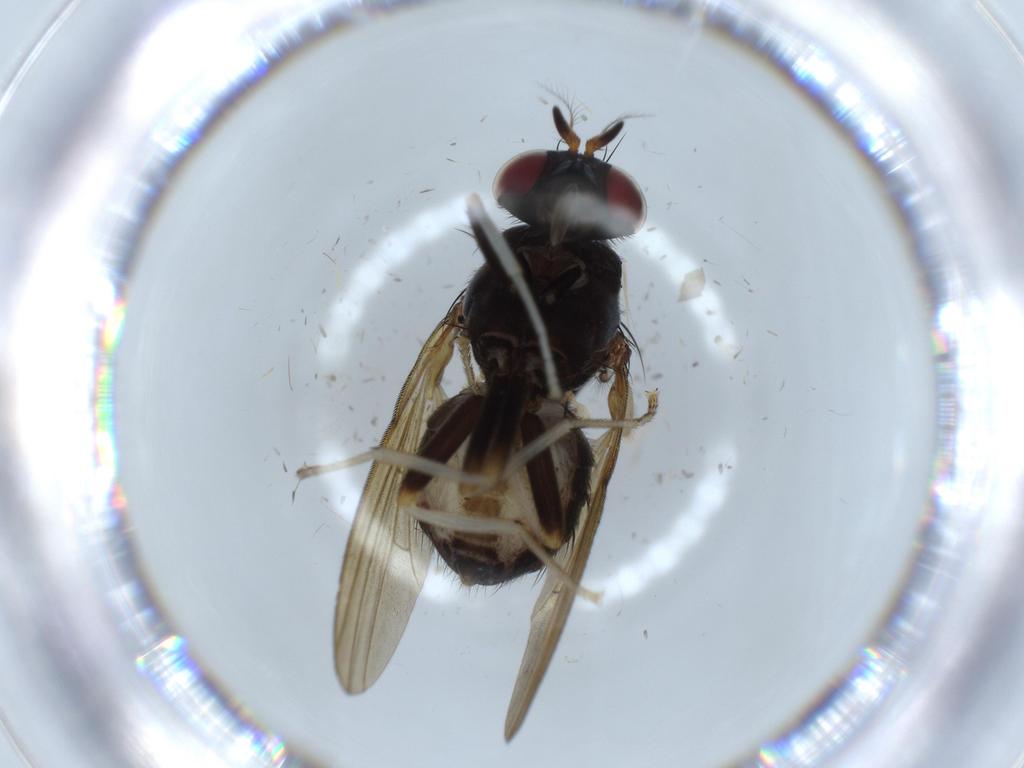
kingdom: Animalia
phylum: Arthropoda
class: Insecta
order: Diptera
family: Lauxaniidae
